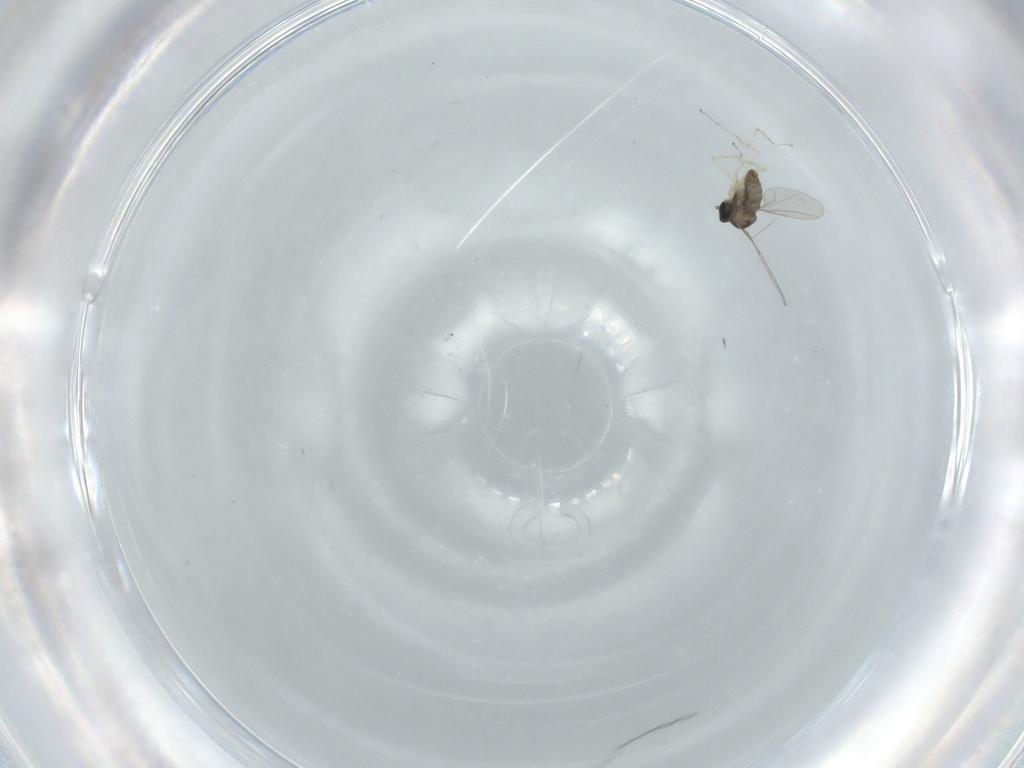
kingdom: Animalia
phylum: Arthropoda
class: Insecta
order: Diptera
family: Cecidomyiidae
